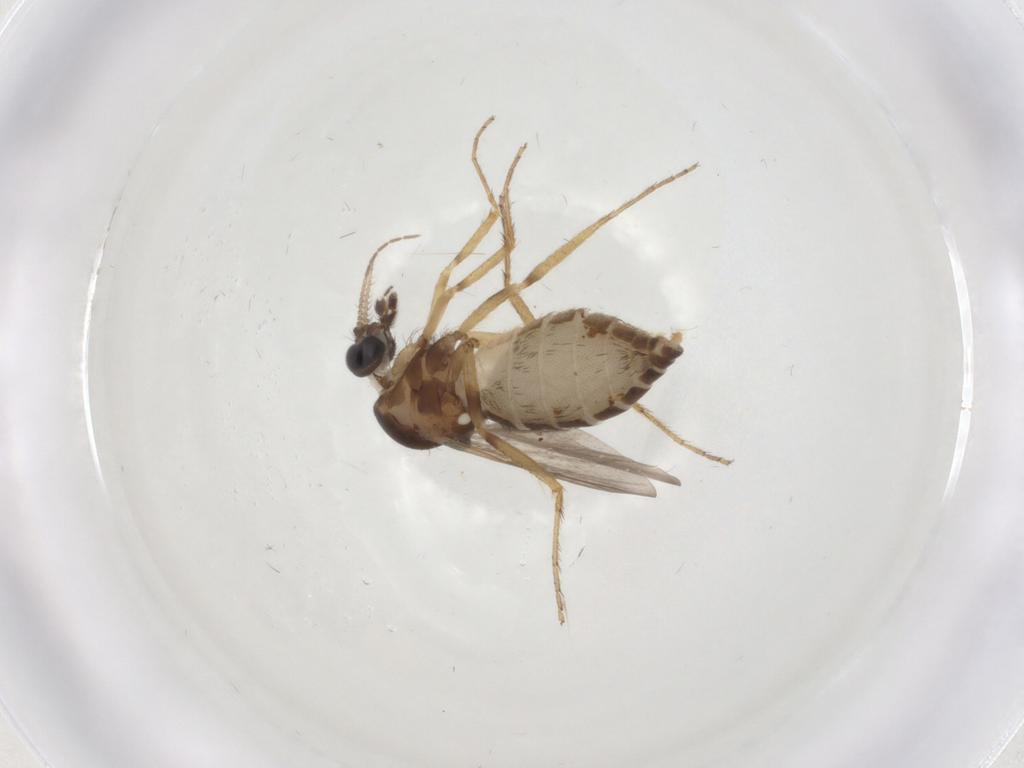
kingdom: Animalia
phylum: Arthropoda
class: Insecta
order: Diptera
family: Ceratopogonidae
